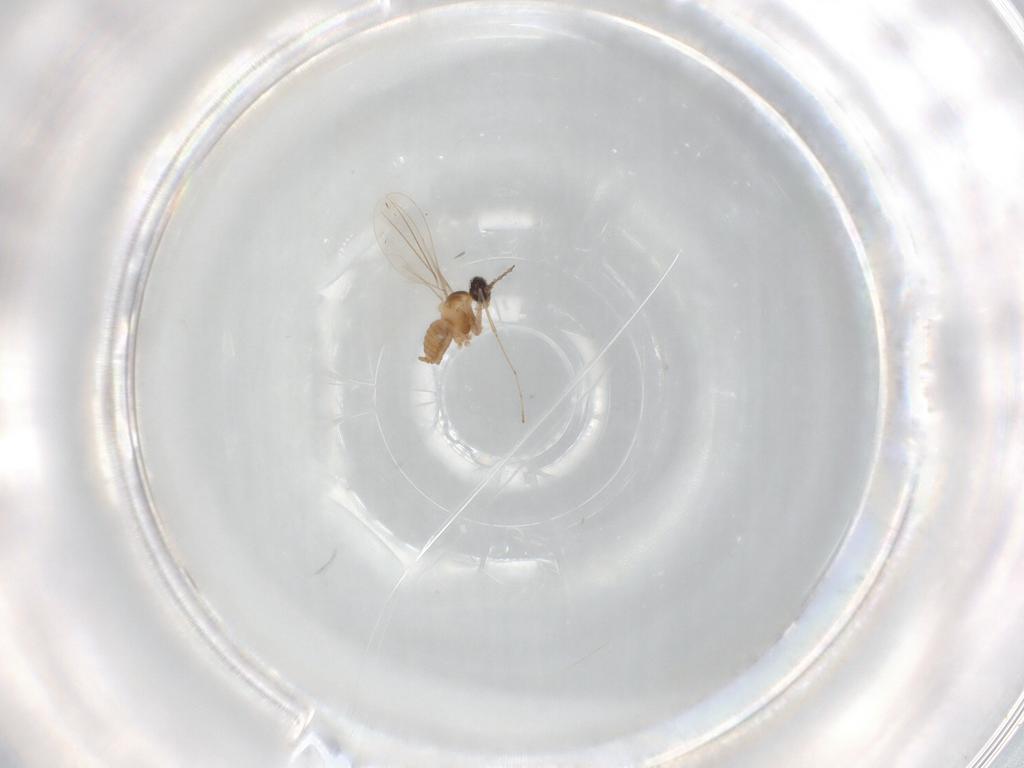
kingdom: Animalia
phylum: Arthropoda
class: Insecta
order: Diptera
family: Cecidomyiidae
